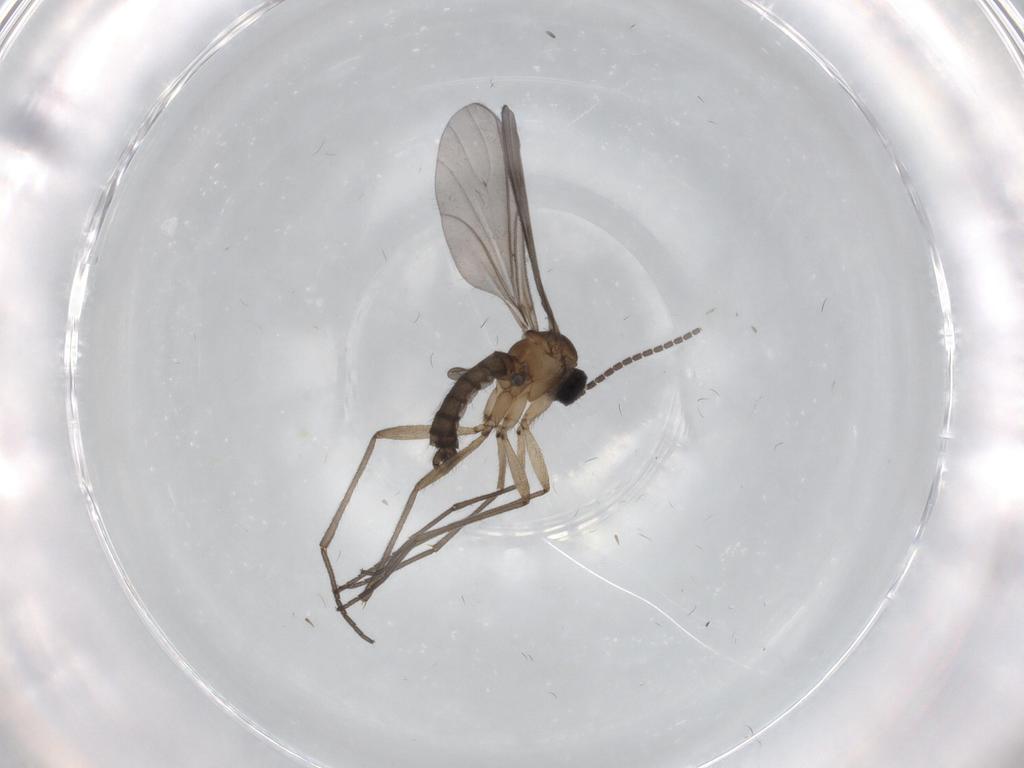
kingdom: Animalia
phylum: Arthropoda
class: Insecta
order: Diptera
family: Sciaridae
